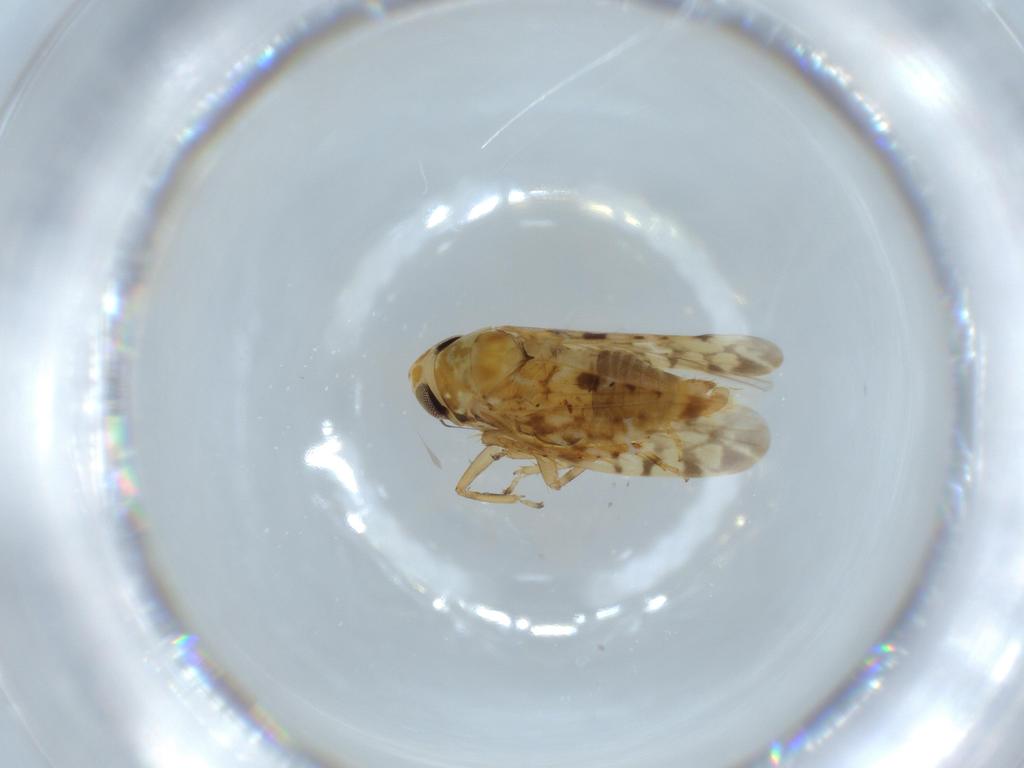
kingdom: Animalia
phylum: Arthropoda
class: Insecta
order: Hemiptera
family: Cicadellidae
